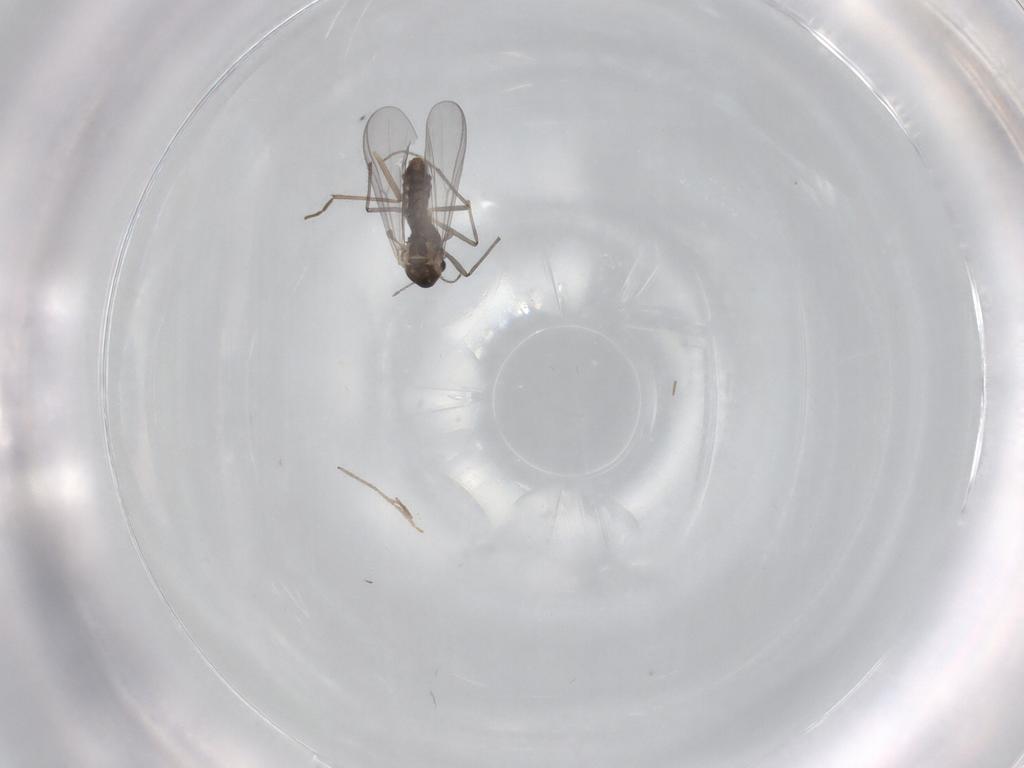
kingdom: Animalia
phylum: Arthropoda
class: Insecta
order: Diptera
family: Chironomidae
